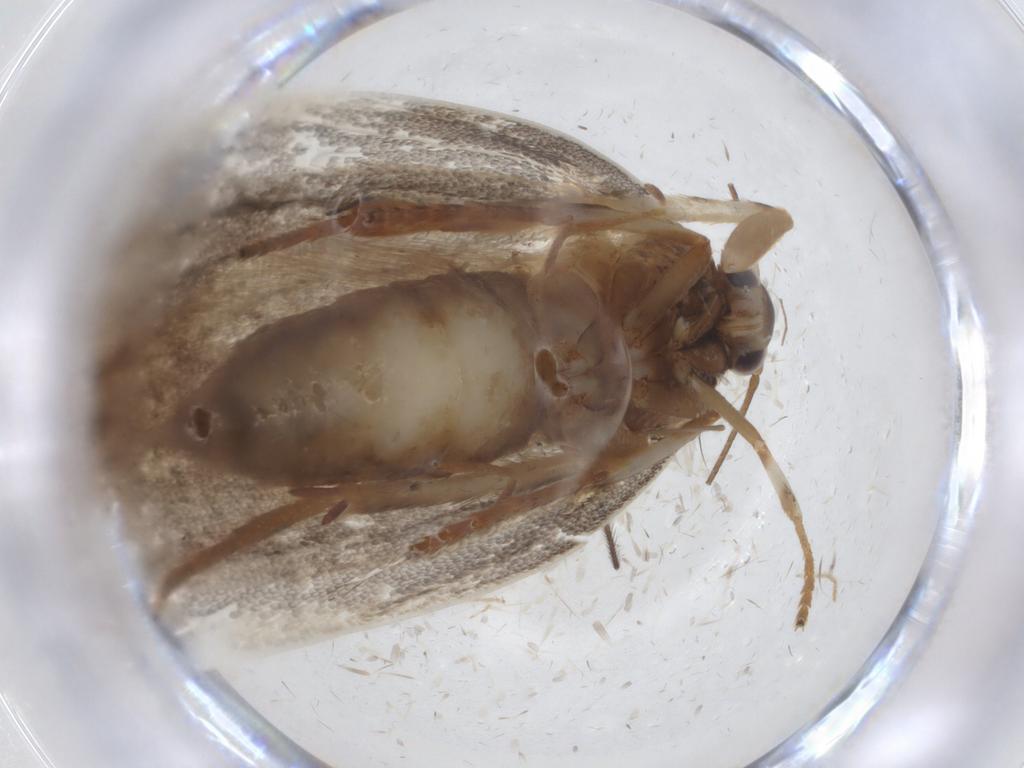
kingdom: Animalia
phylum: Arthropoda
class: Insecta
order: Lepidoptera
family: Oecophoridae
